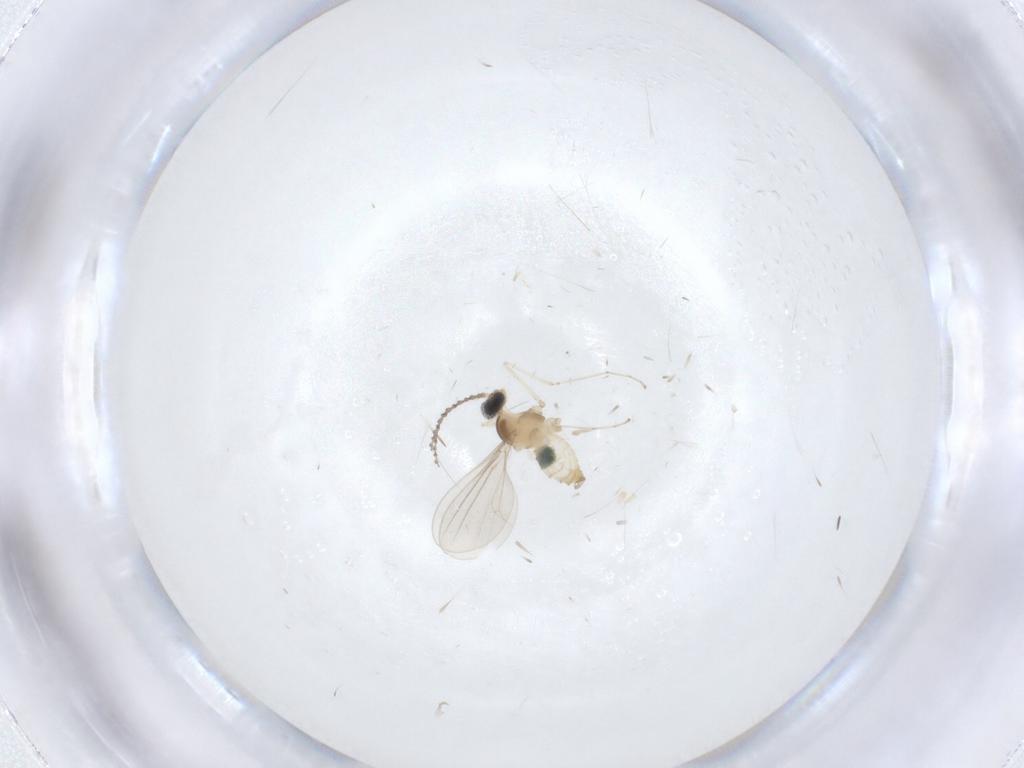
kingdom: Animalia
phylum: Arthropoda
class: Insecta
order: Diptera
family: Cecidomyiidae
